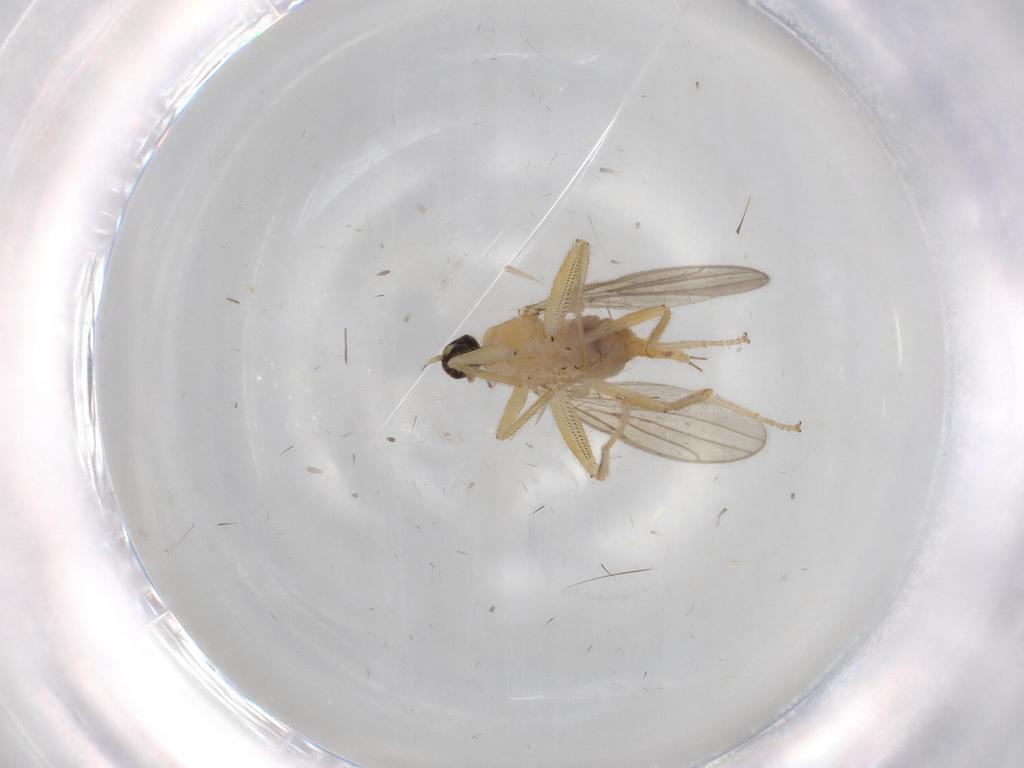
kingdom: Animalia
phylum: Arthropoda
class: Insecta
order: Diptera
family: Hybotidae
